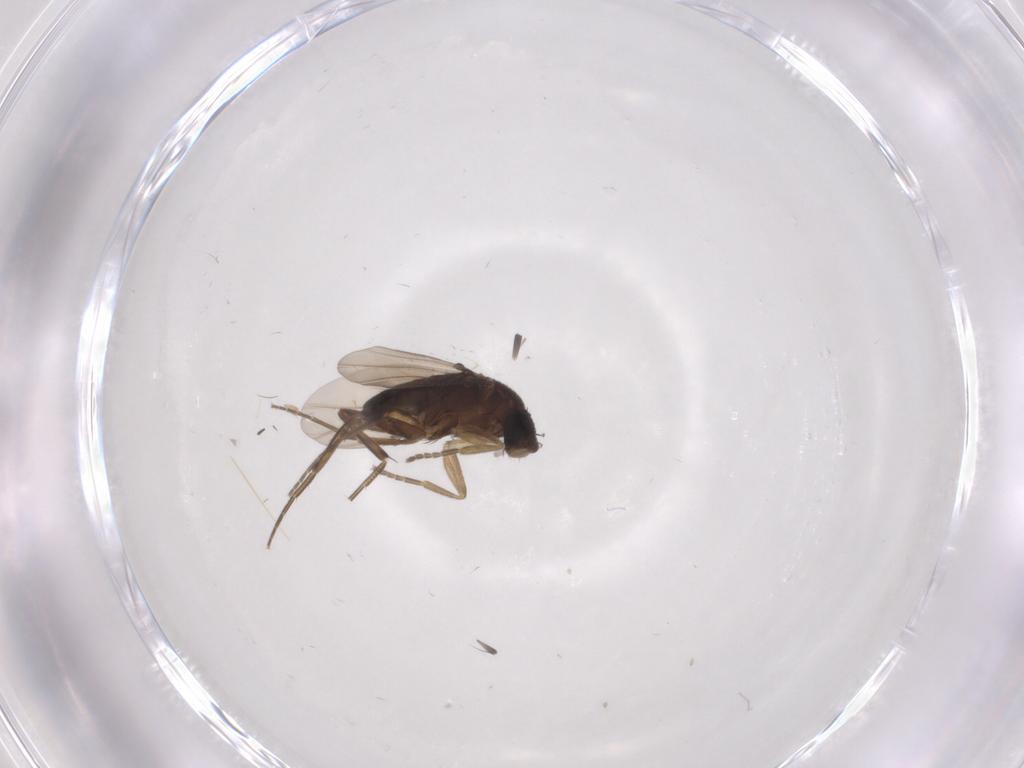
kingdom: Animalia
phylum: Arthropoda
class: Insecta
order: Diptera
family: Phoridae
